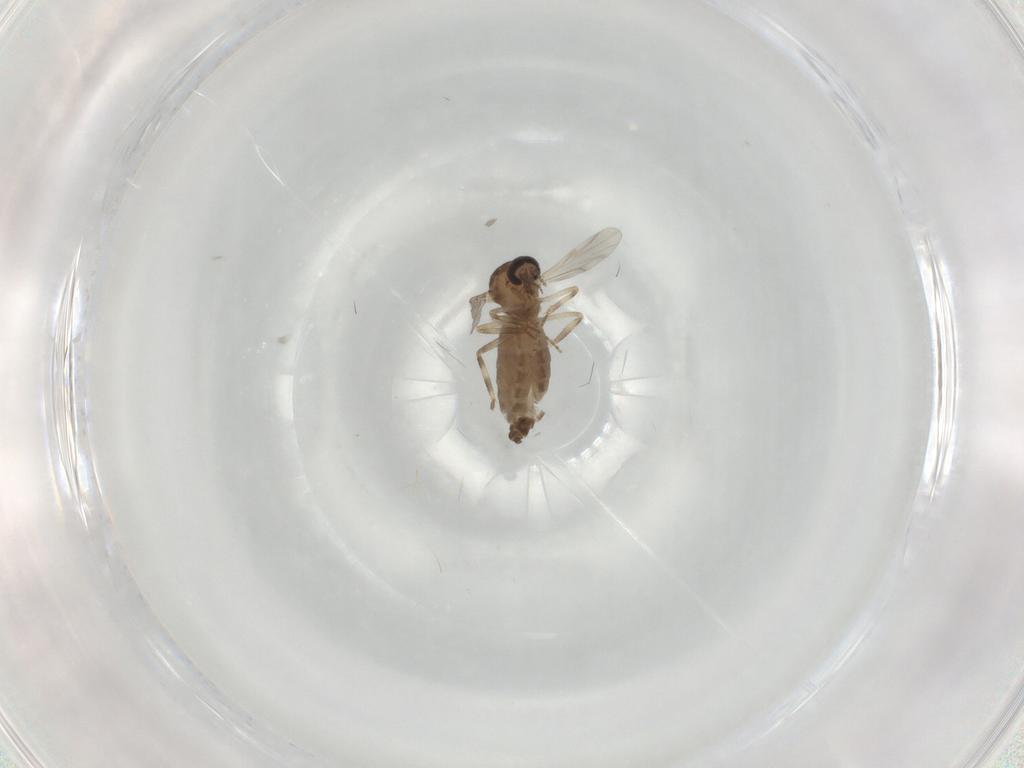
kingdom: Animalia
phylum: Arthropoda
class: Insecta
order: Diptera
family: Ceratopogonidae
